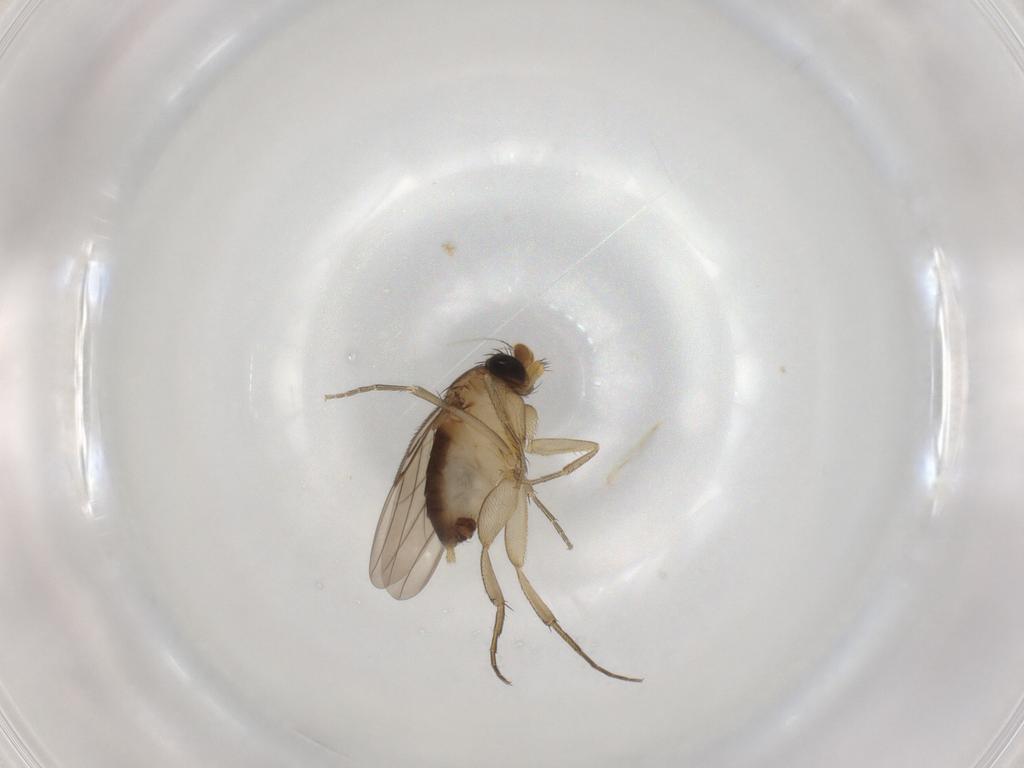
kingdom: Animalia
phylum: Arthropoda
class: Insecta
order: Diptera
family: Phoridae
